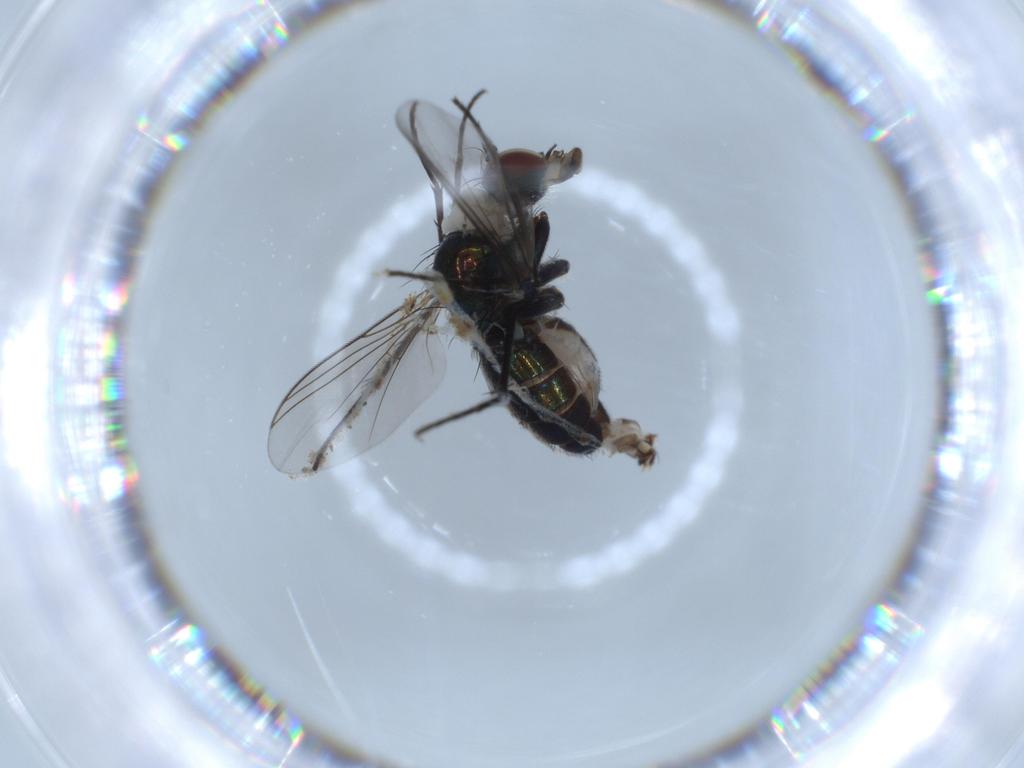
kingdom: Animalia
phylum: Arthropoda
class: Insecta
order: Diptera
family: Dolichopodidae
